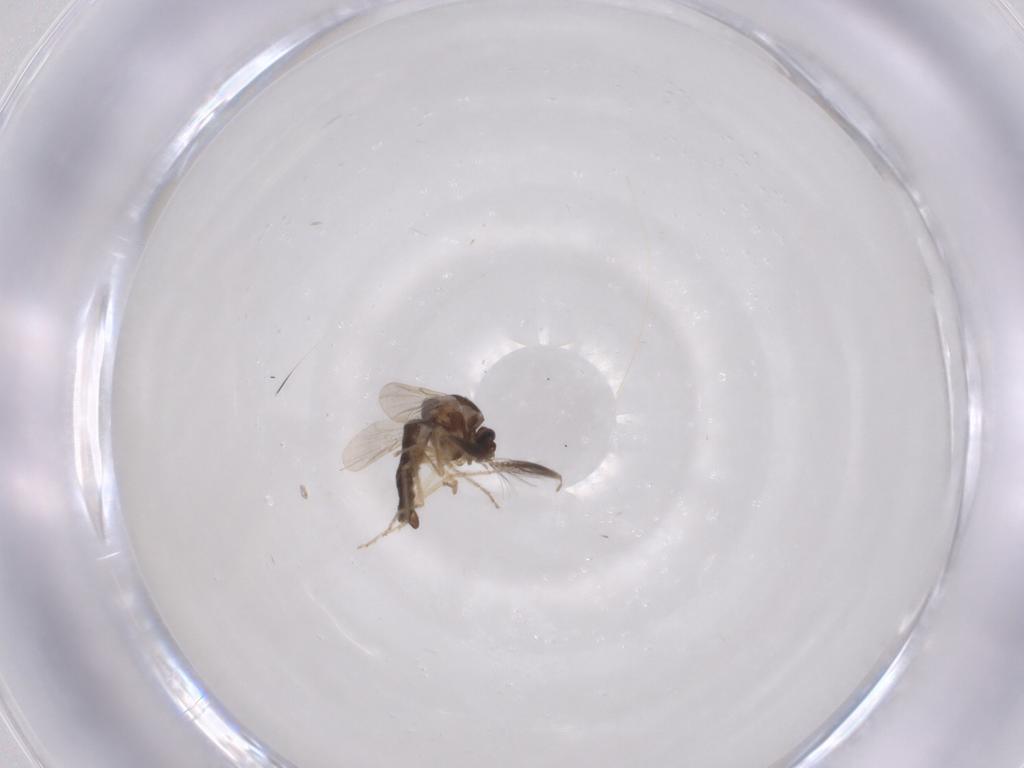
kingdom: Animalia
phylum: Arthropoda
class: Insecta
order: Diptera
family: Ceratopogonidae
